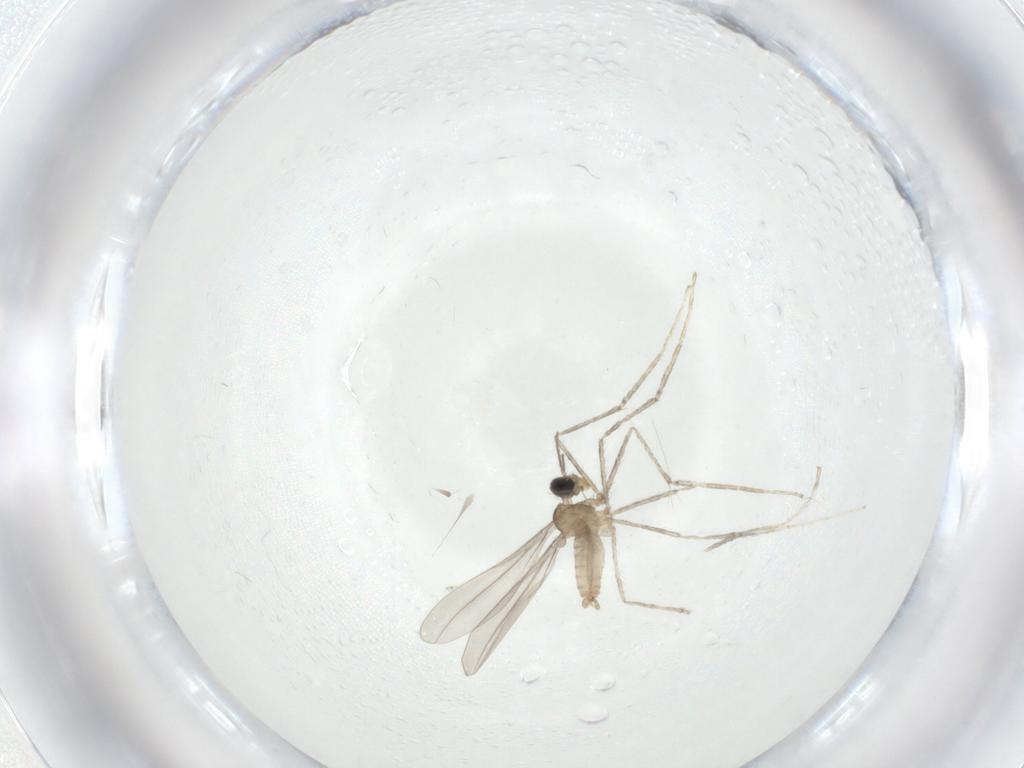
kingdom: Animalia
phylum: Arthropoda
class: Insecta
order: Diptera
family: Cecidomyiidae
